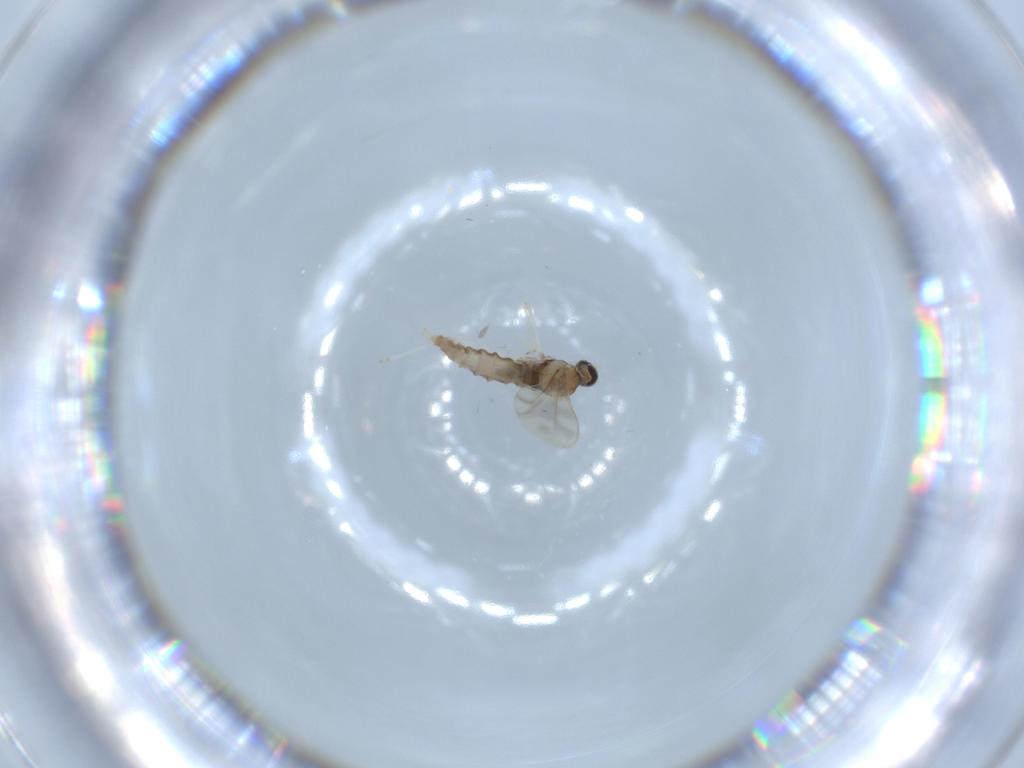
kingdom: Animalia
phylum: Arthropoda
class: Insecta
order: Diptera
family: Cecidomyiidae
